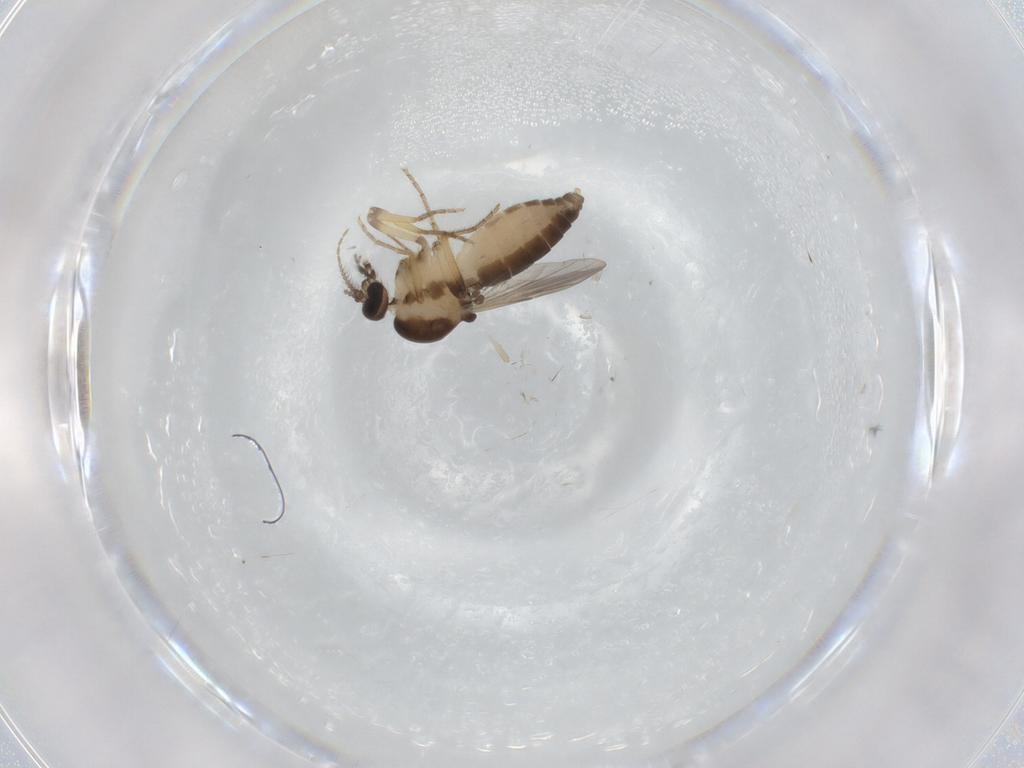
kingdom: Animalia
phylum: Arthropoda
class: Insecta
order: Diptera
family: Ceratopogonidae
